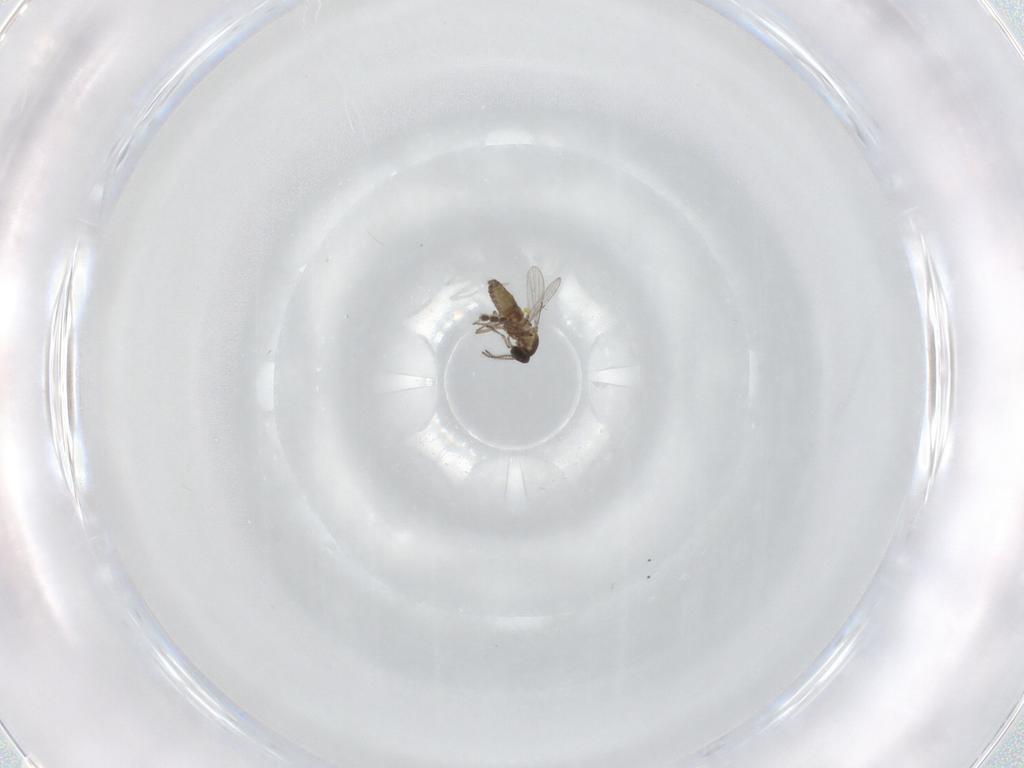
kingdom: Animalia
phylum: Arthropoda
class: Insecta
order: Diptera
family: Ceratopogonidae
